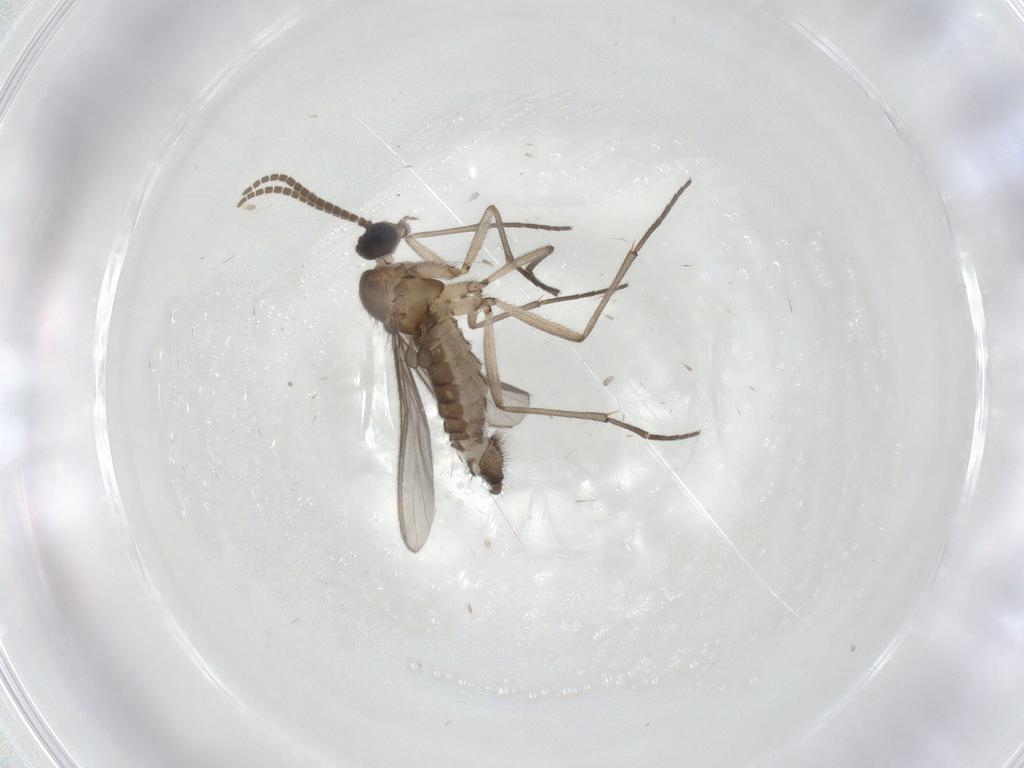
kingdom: Animalia
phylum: Arthropoda
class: Insecta
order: Diptera
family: Sciaridae
